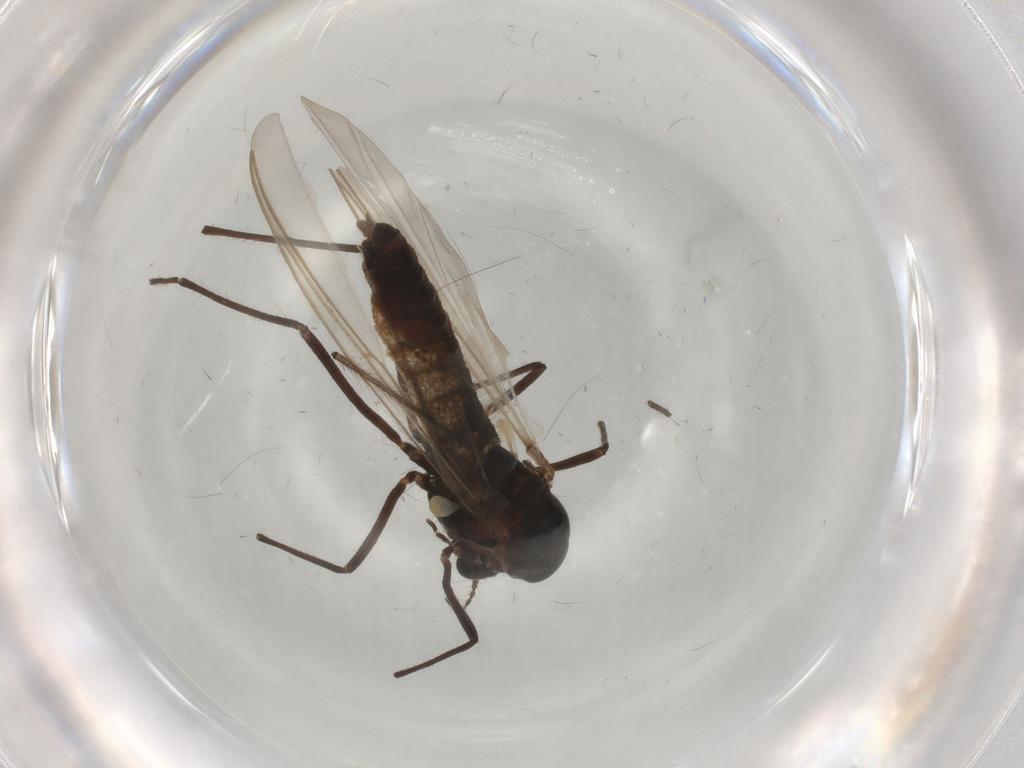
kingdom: Animalia
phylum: Arthropoda
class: Insecta
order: Diptera
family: Chironomidae
